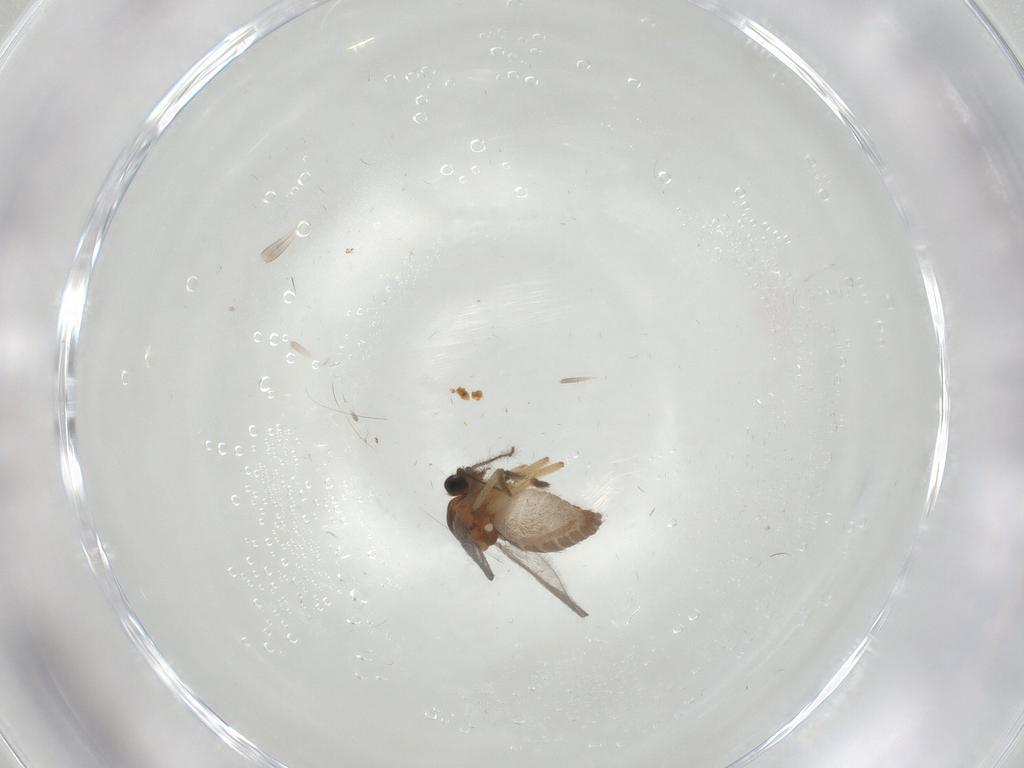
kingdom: Animalia
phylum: Arthropoda
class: Insecta
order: Diptera
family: Ceratopogonidae
